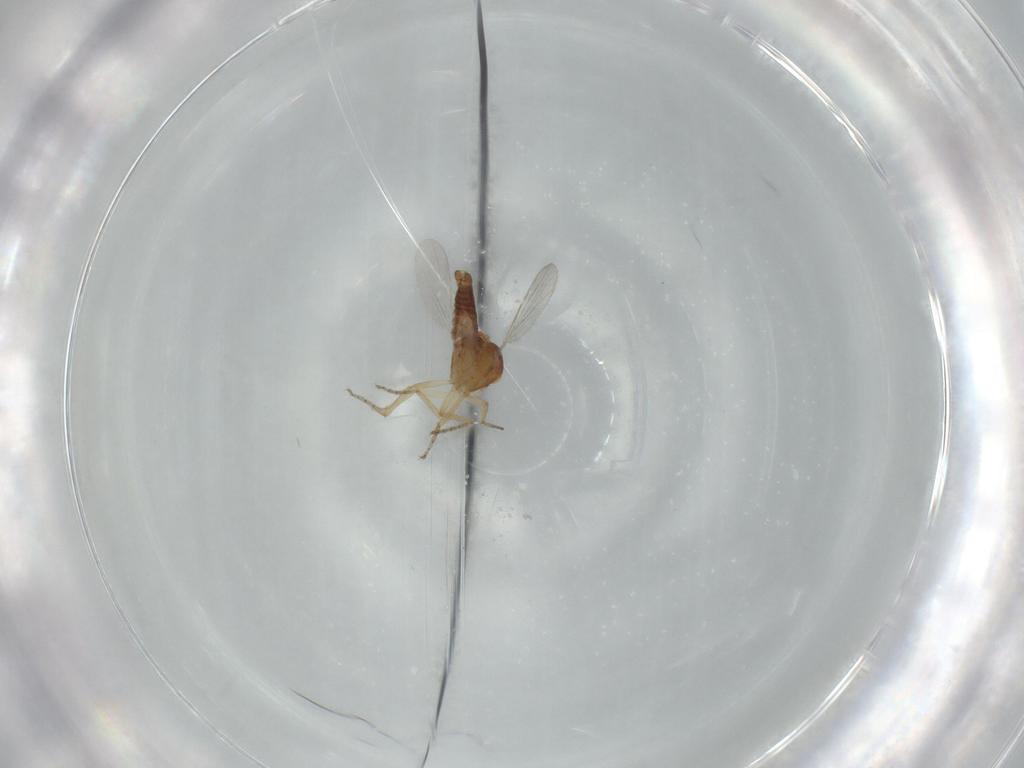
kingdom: Animalia
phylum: Arthropoda
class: Insecta
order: Diptera
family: Ceratopogonidae
